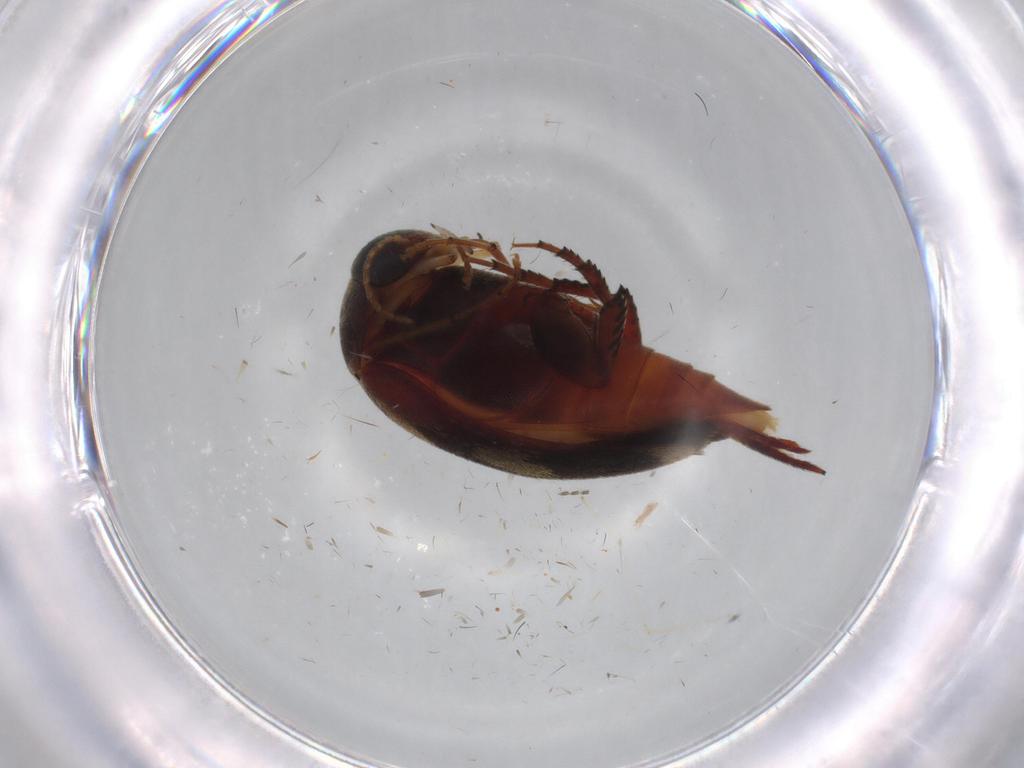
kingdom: Animalia
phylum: Arthropoda
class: Insecta
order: Coleoptera
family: Mordellidae
